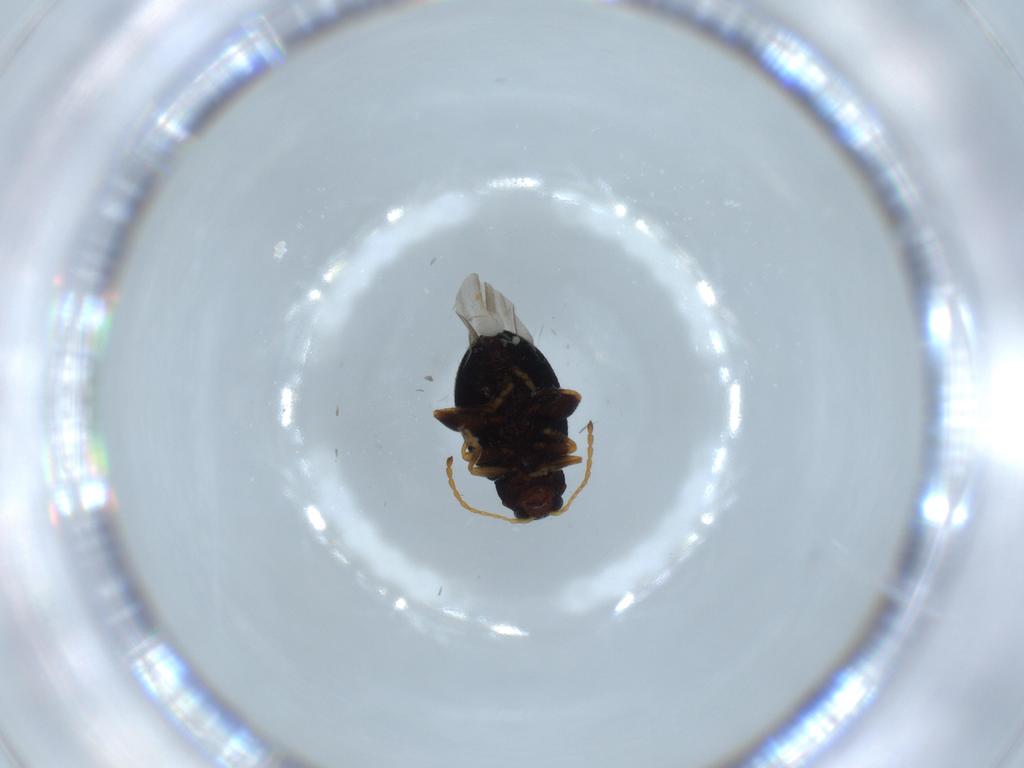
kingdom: Animalia
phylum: Arthropoda
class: Insecta
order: Coleoptera
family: Chrysomelidae
